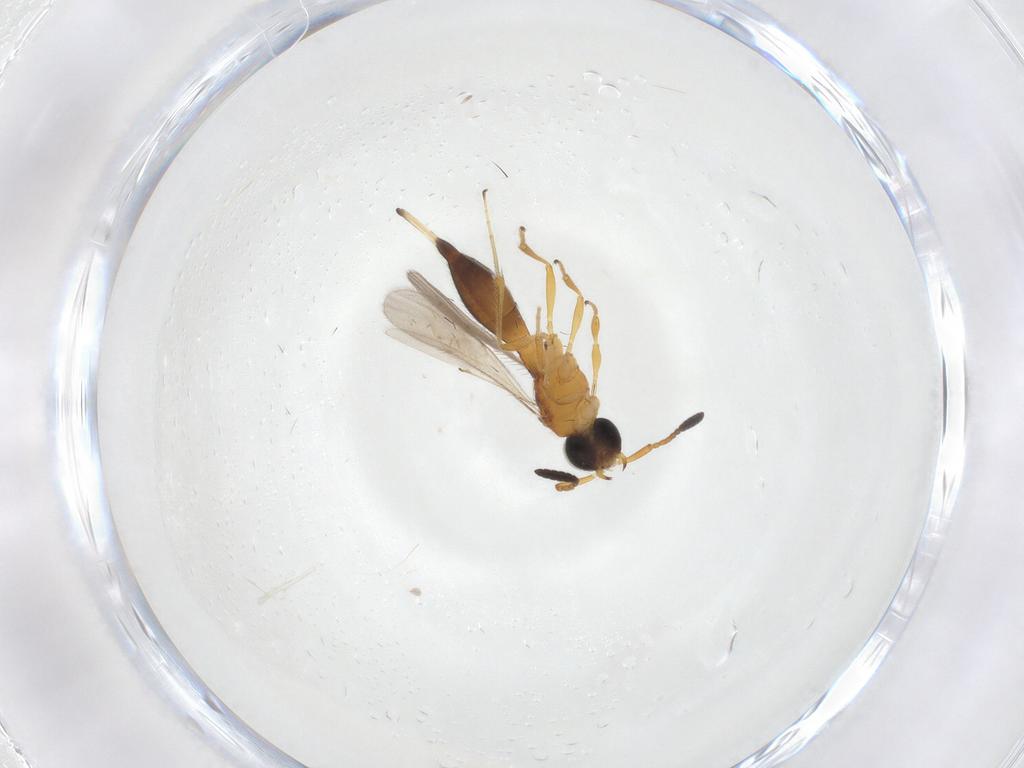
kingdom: Animalia
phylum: Arthropoda
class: Insecta
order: Hymenoptera
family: Scelionidae
